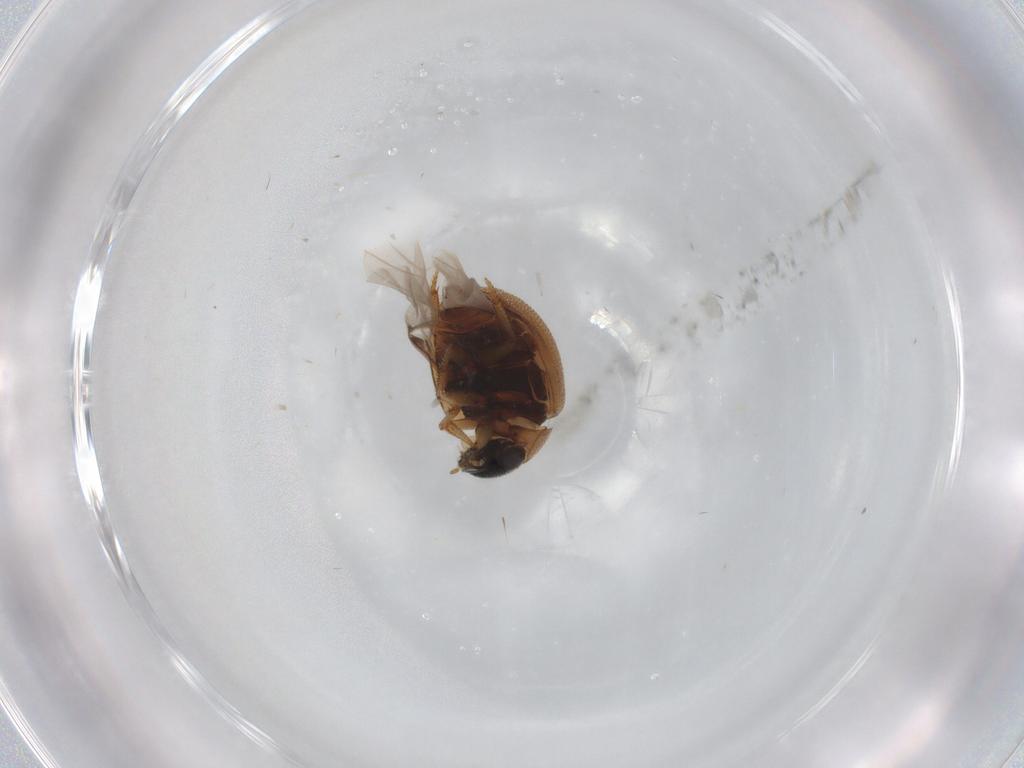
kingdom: Animalia
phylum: Arthropoda
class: Insecta
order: Coleoptera
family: Hydrophilidae
